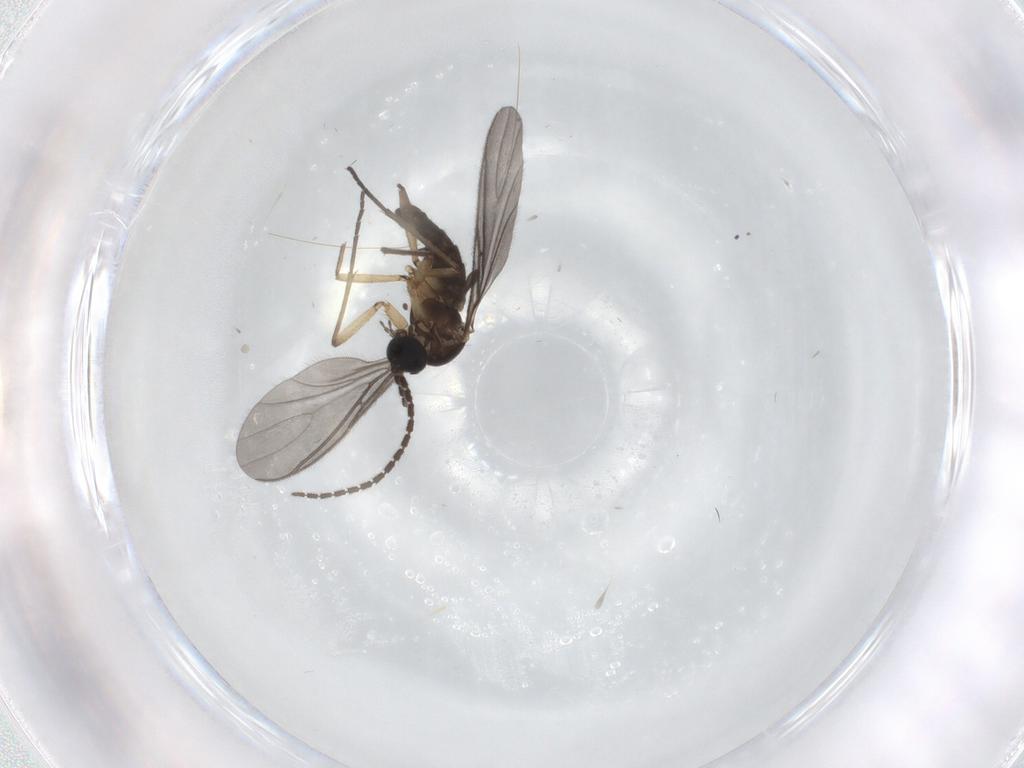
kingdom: Animalia
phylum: Arthropoda
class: Insecta
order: Diptera
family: Sciaridae
